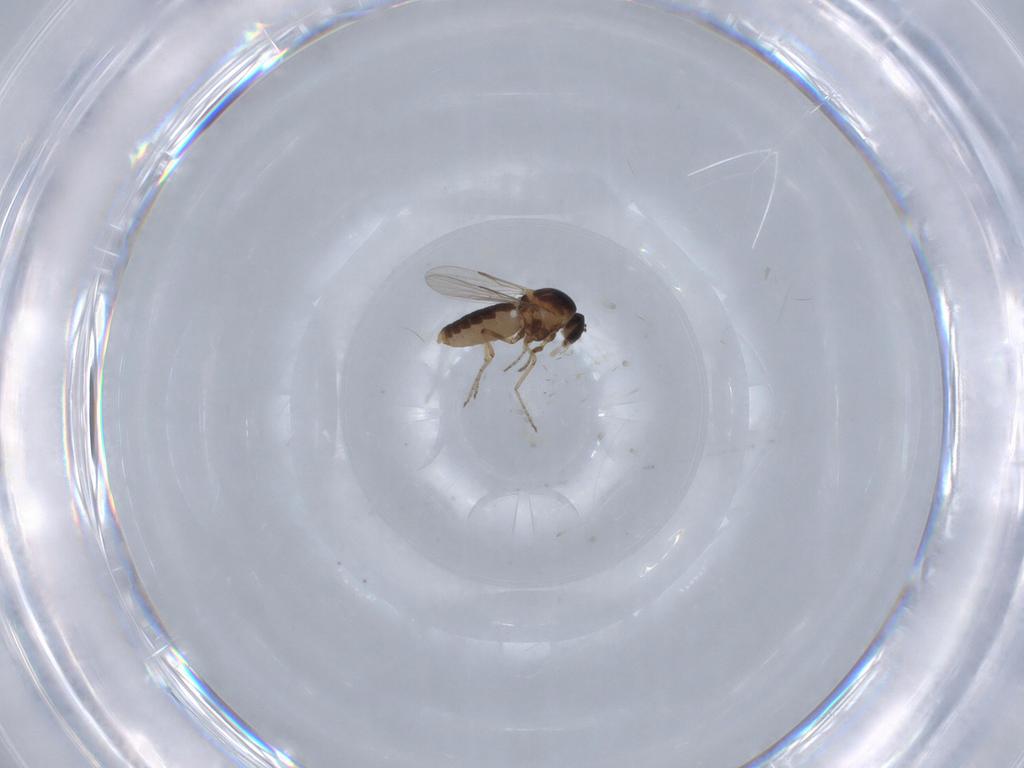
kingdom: Animalia
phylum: Arthropoda
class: Insecta
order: Diptera
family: Ceratopogonidae
